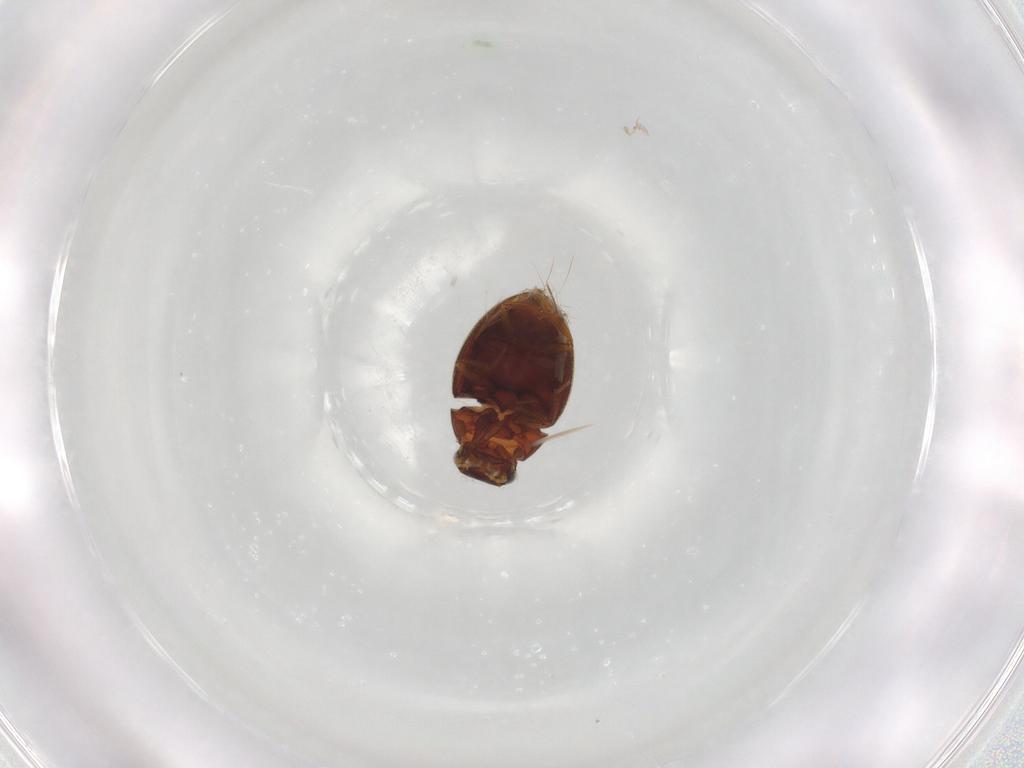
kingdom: Animalia
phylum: Arthropoda
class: Insecta
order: Coleoptera
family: Hydrophilidae
